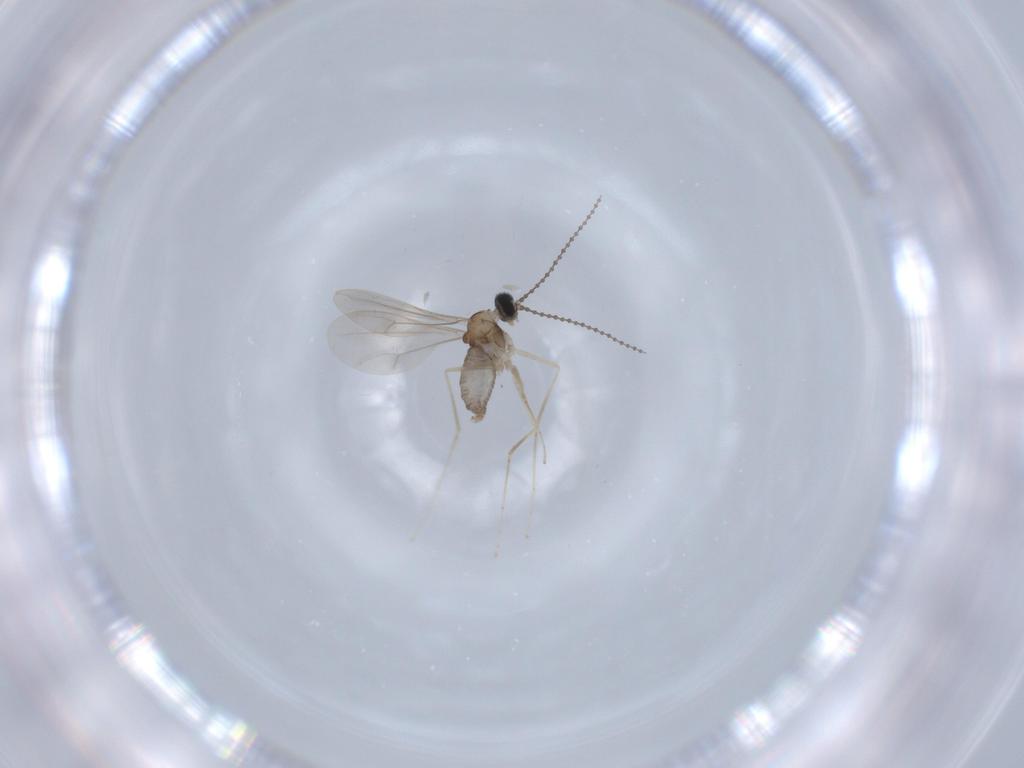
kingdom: Animalia
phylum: Arthropoda
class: Insecta
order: Diptera
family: Cecidomyiidae
